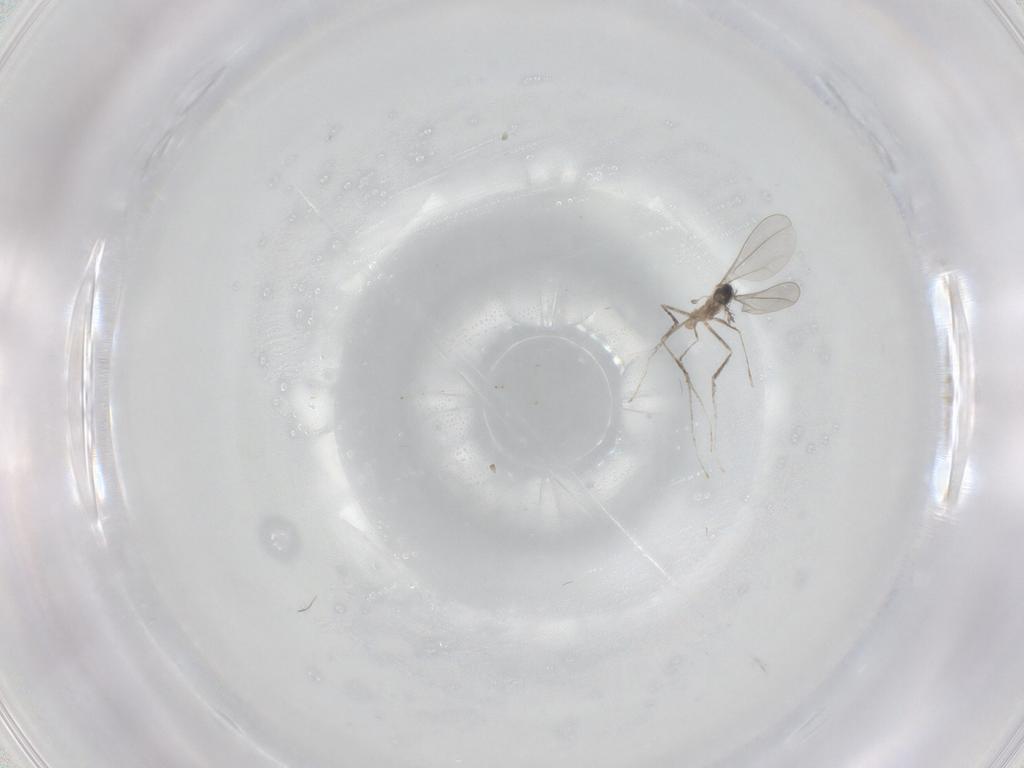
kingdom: Animalia
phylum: Arthropoda
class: Insecta
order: Diptera
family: Cecidomyiidae
